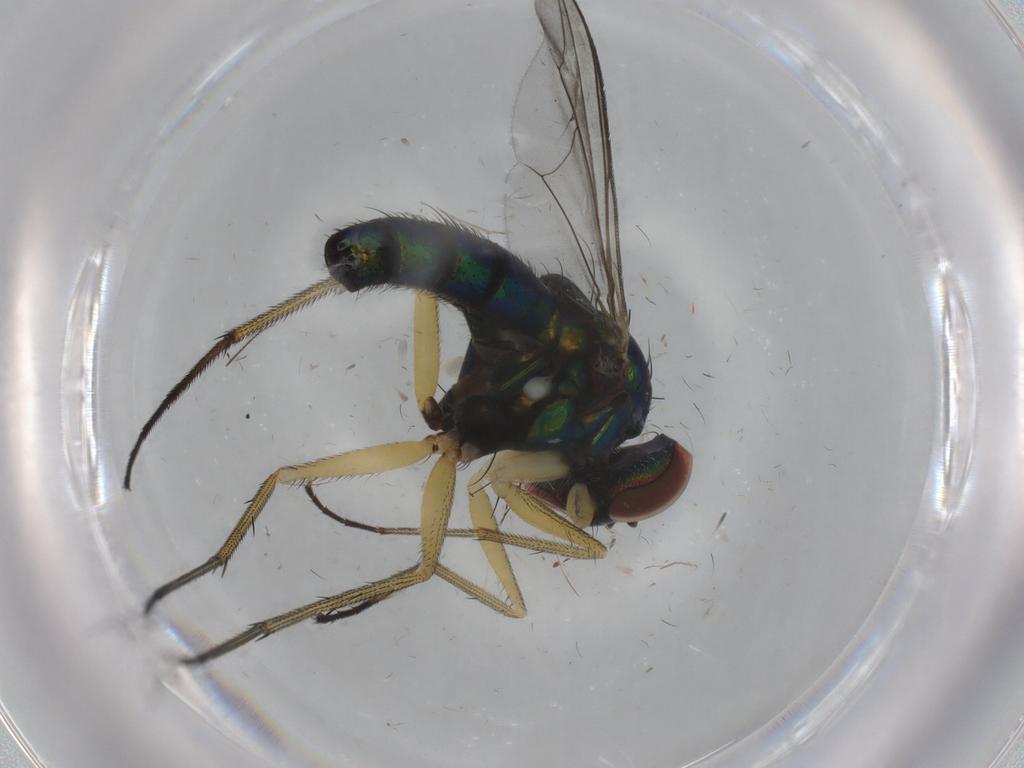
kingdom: Animalia
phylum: Arthropoda
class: Insecta
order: Diptera
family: Dolichopodidae
